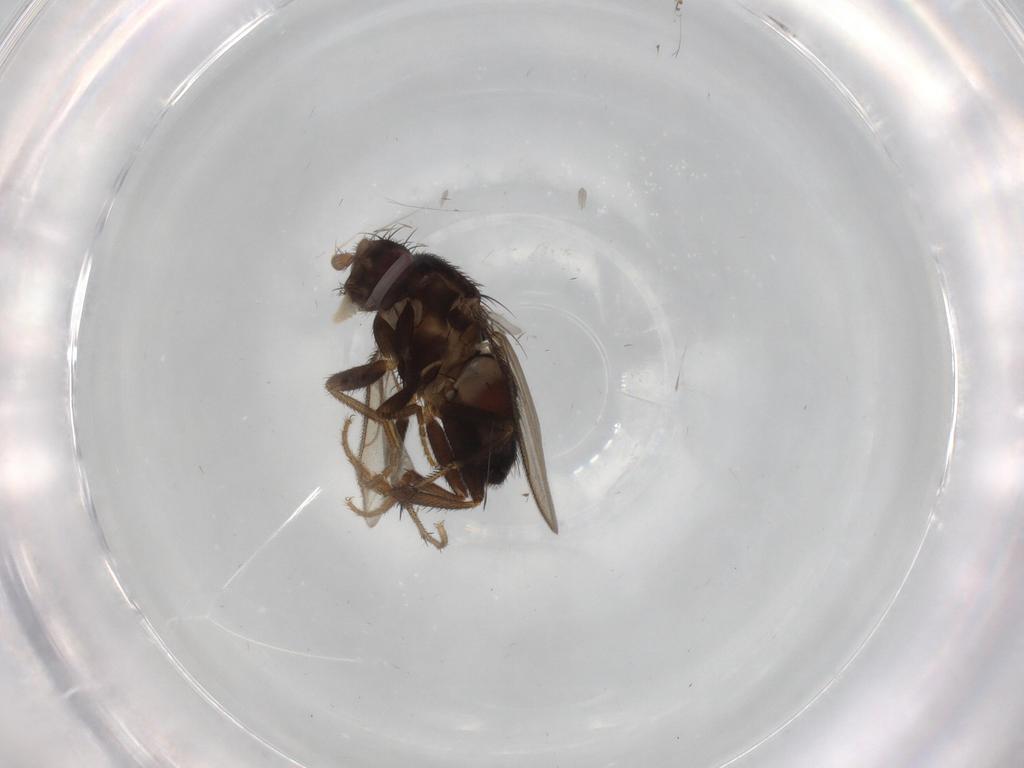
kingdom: Animalia
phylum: Arthropoda
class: Insecta
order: Diptera
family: Sphaeroceridae
